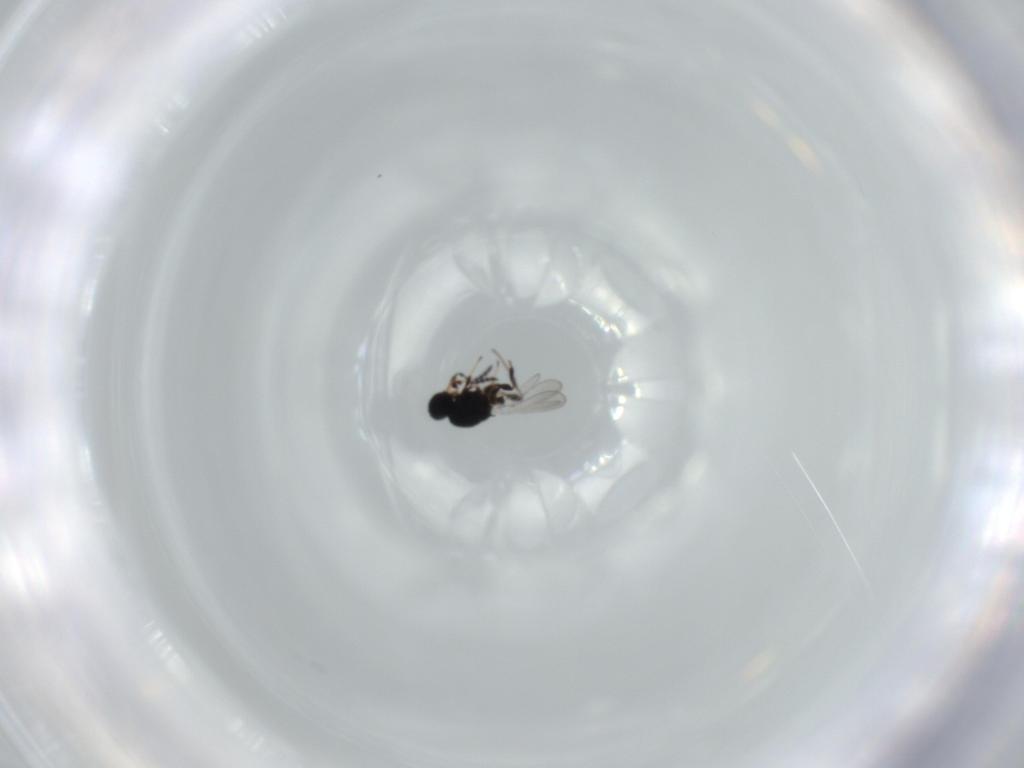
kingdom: Animalia
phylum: Arthropoda
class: Insecta
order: Hymenoptera
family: Platygastridae
